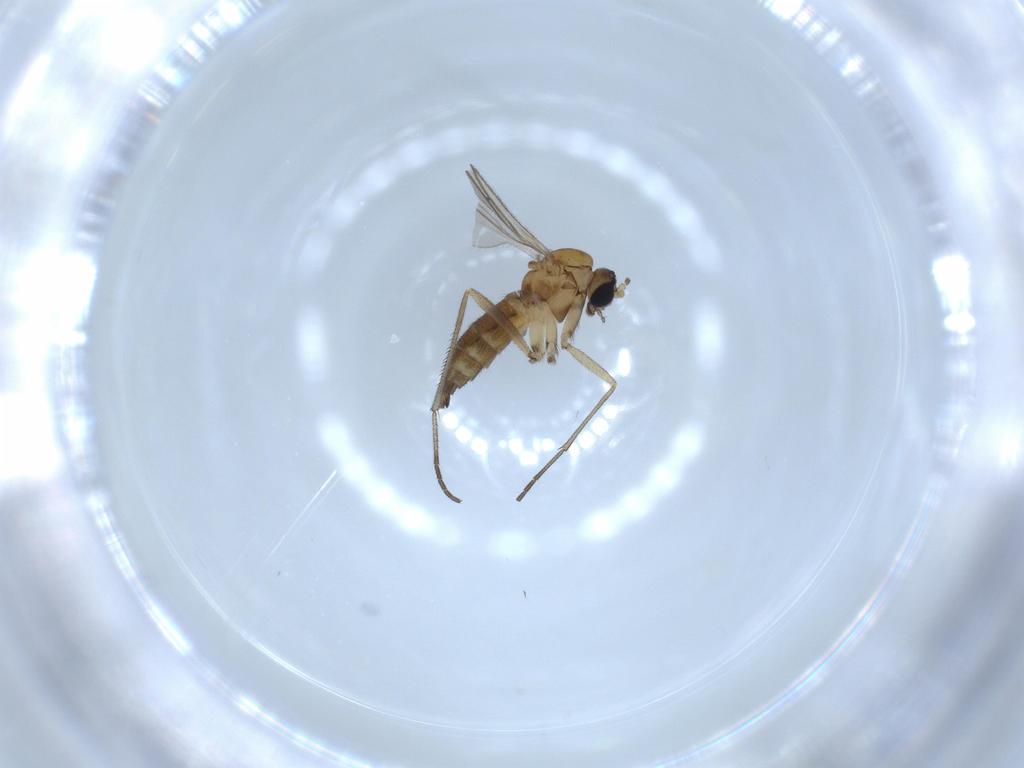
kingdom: Animalia
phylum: Arthropoda
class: Insecta
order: Diptera
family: Sciaridae
